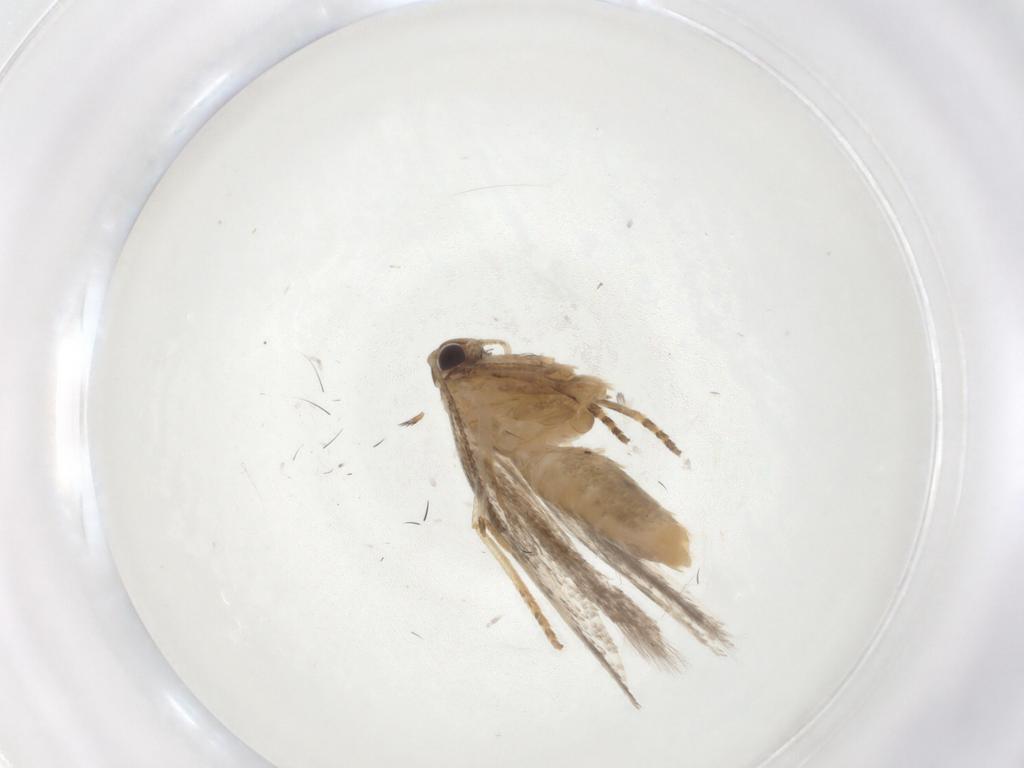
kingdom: Animalia
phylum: Arthropoda
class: Insecta
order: Lepidoptera
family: Gelechiidae
